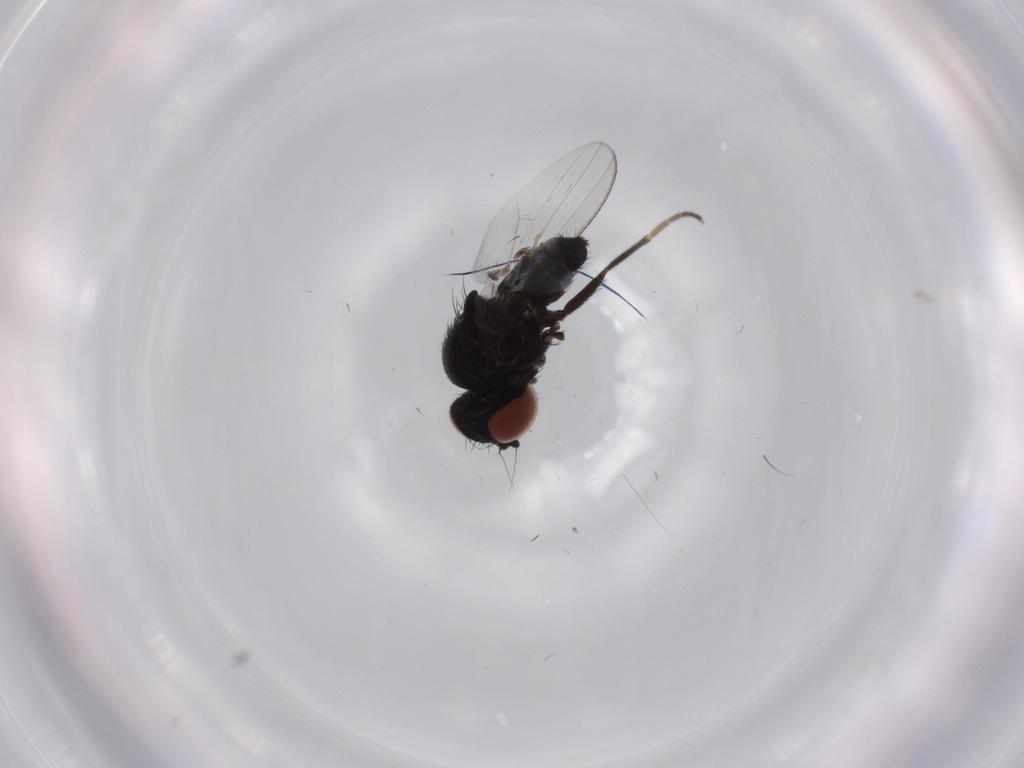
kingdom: Animalia
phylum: Arthropoda
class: Insecta
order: Diptera
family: Milichiidae
